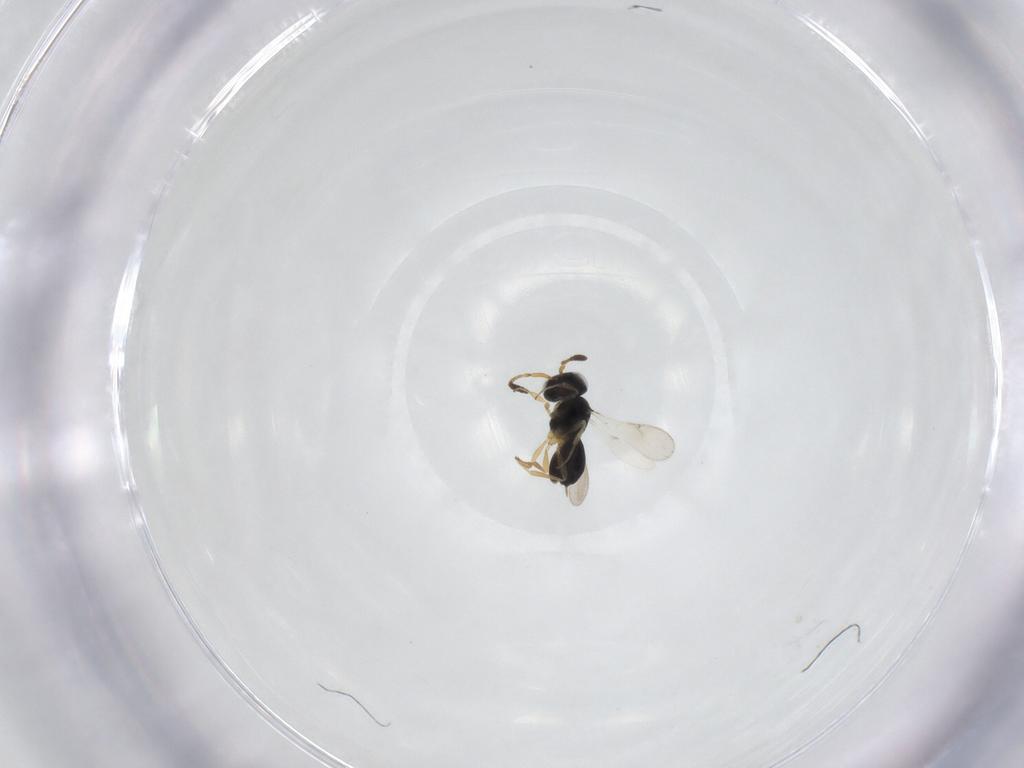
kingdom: Animalia
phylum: Arthropoda
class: Insecta
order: Hymenoptera
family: Scelionidae
